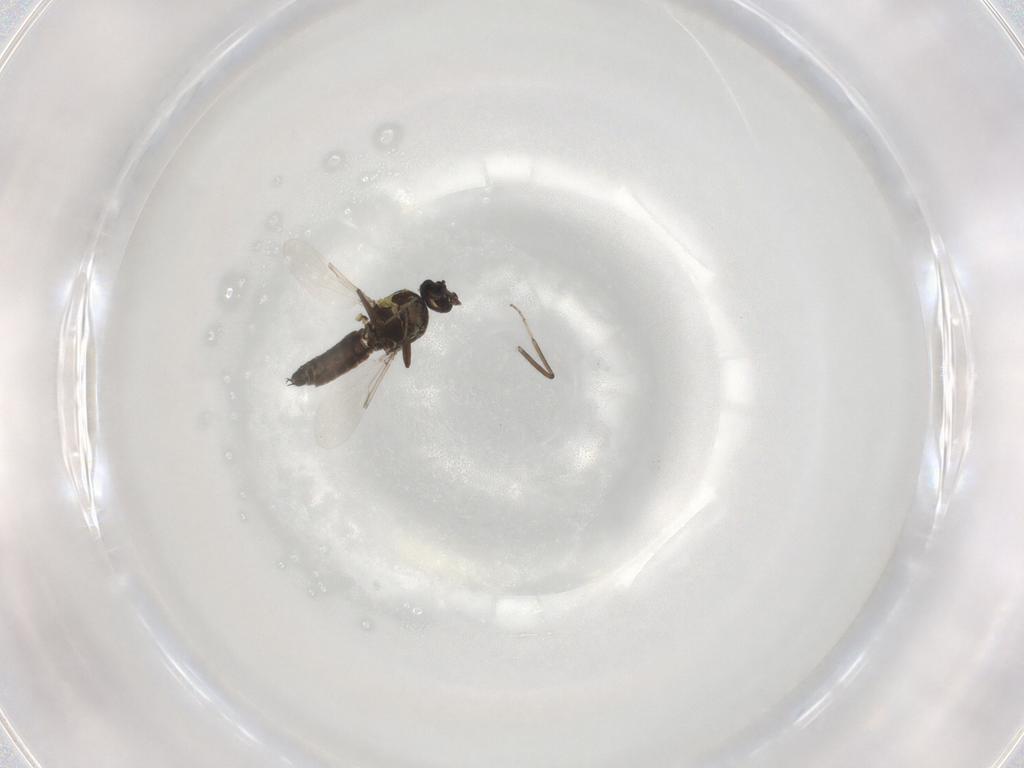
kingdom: Animalia
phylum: Arthropoda
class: Insecta
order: Diptera
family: Ceratopogonidae
